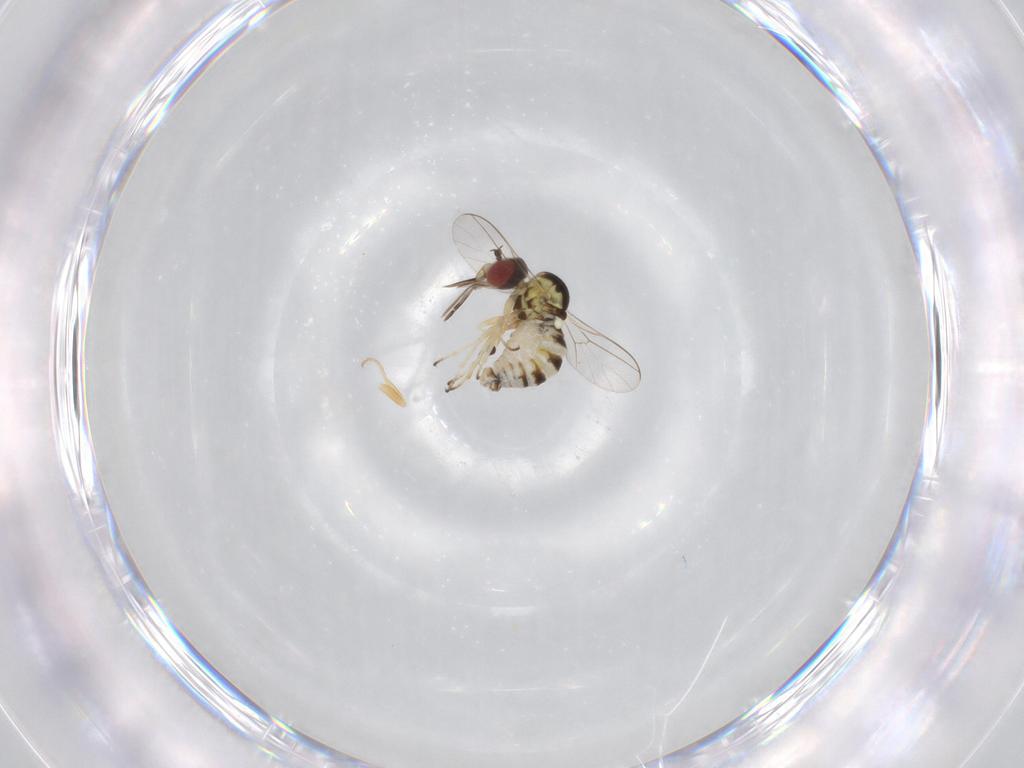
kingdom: Animalia
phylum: Arthropoda
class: Insecta
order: Diptera
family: Chloropidae
